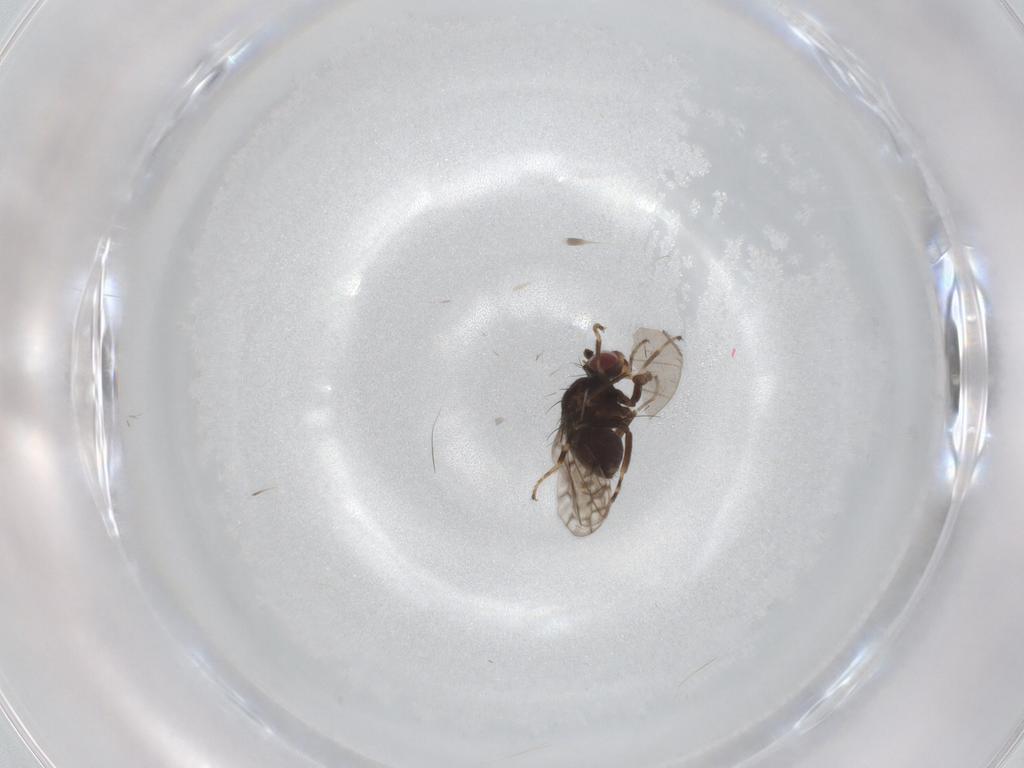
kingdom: Animalia
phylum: Arthropoda
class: Insecta
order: Diptera
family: Ephydridae
